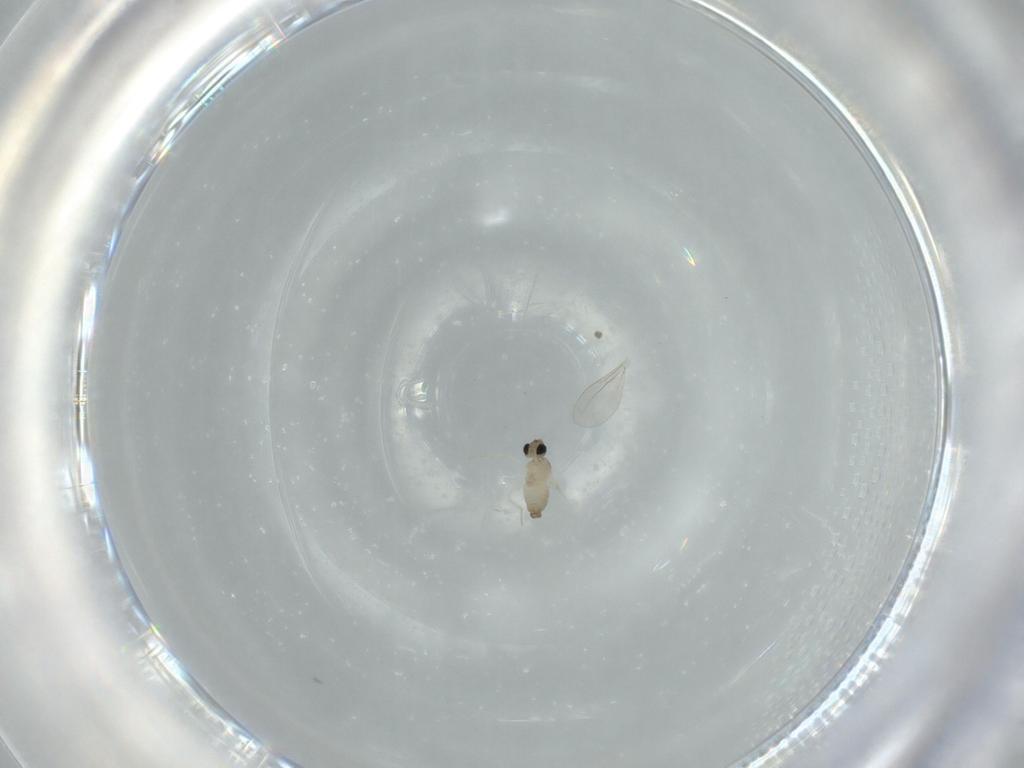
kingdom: Animalia
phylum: Arthropoda
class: Insecta
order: Diptera
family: Cecidomyiidae
